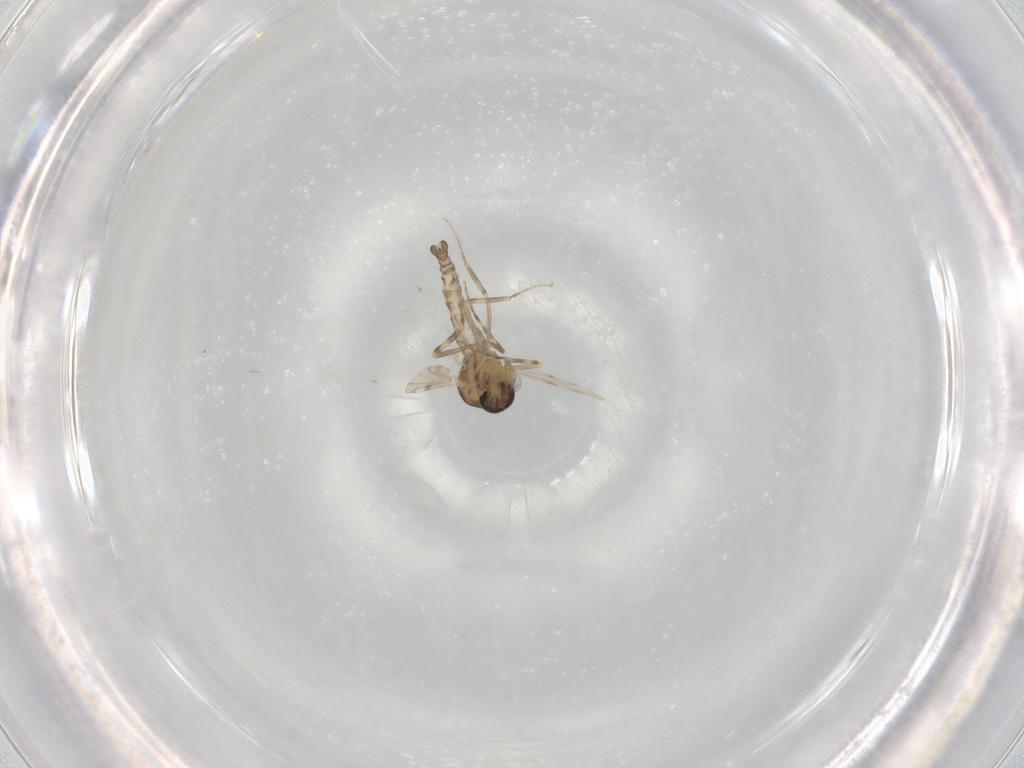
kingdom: Animalia
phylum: Arthropoda
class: Insecta
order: Diptera
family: Ceratopogonidae
